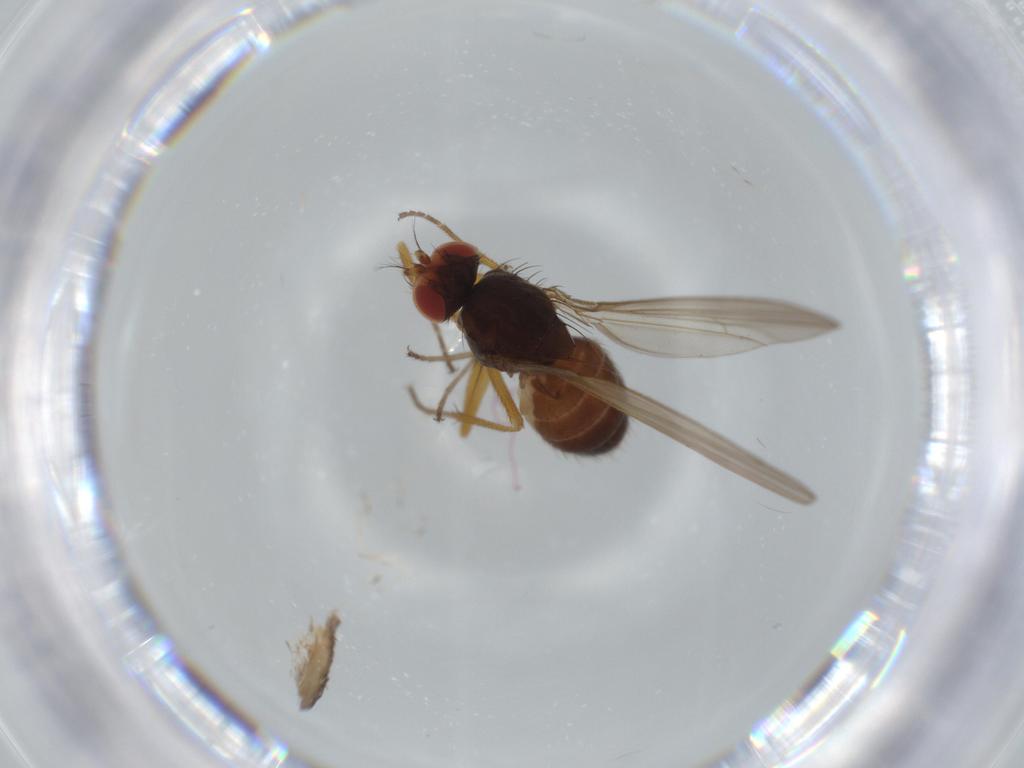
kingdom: Animalia
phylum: Arthropoda
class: Insecta
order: Diptera
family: Drosophilidae
